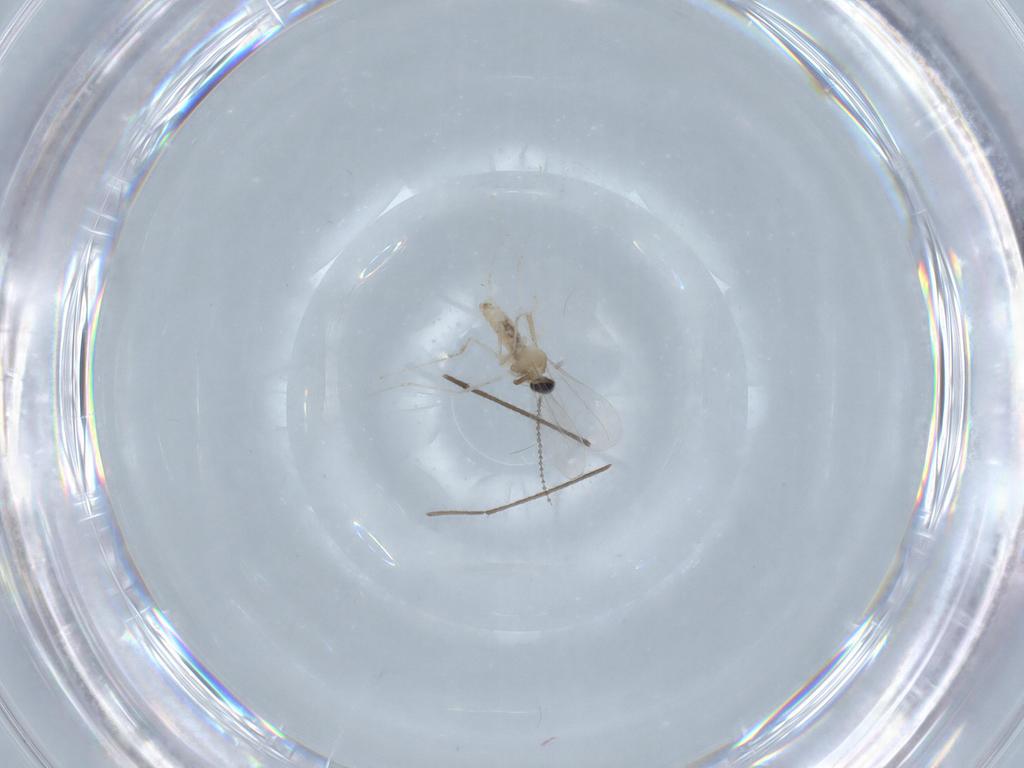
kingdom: Animalia
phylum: Arthropoda
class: Insecta
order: Diptera
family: Chironomidae
